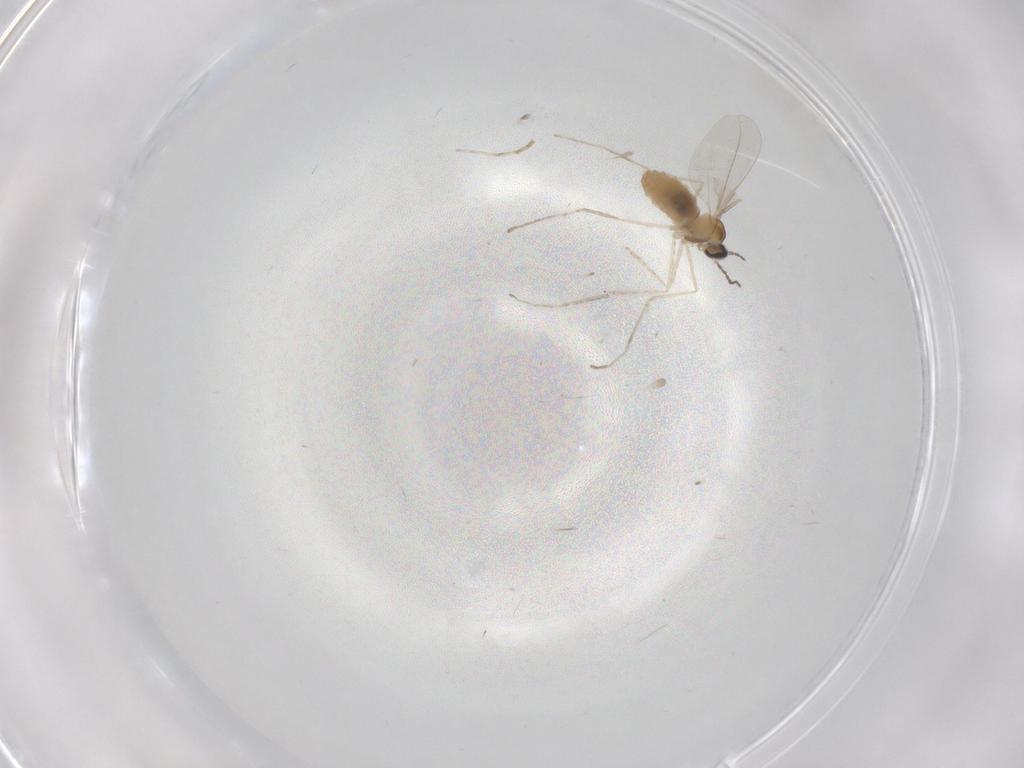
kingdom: Animalia
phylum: Arthropoda
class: Insecta
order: Diptera
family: Cecidomyiidae
